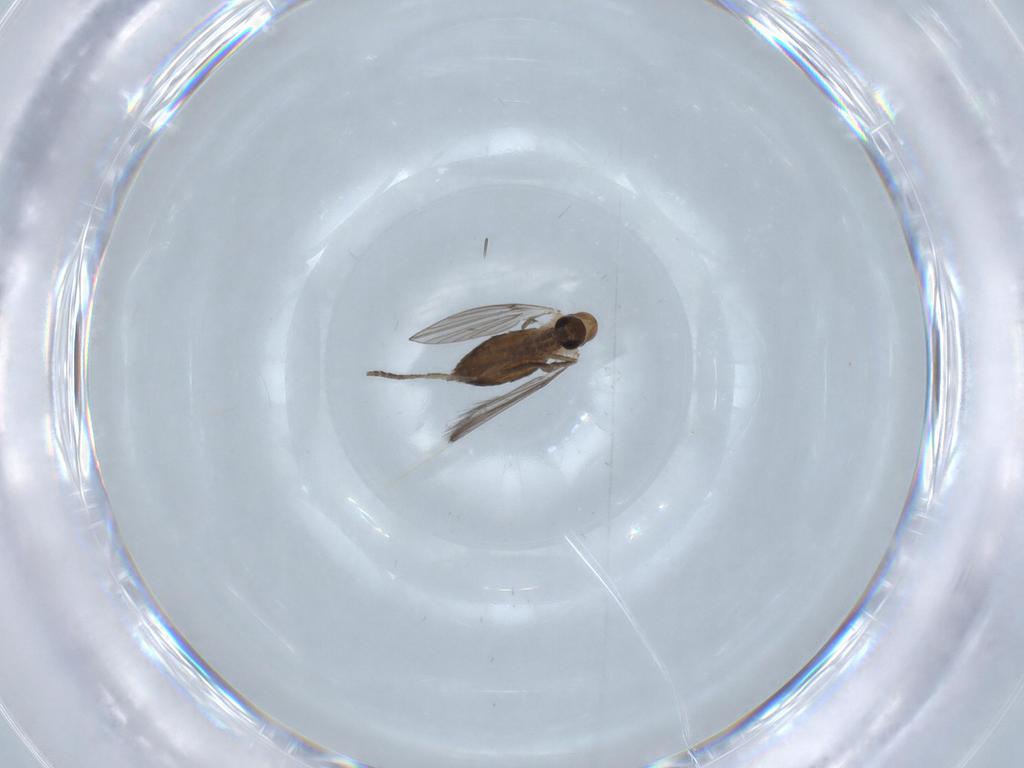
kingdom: Animalia
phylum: Arthropoda
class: Insecta
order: Diptera
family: Psychodidae
